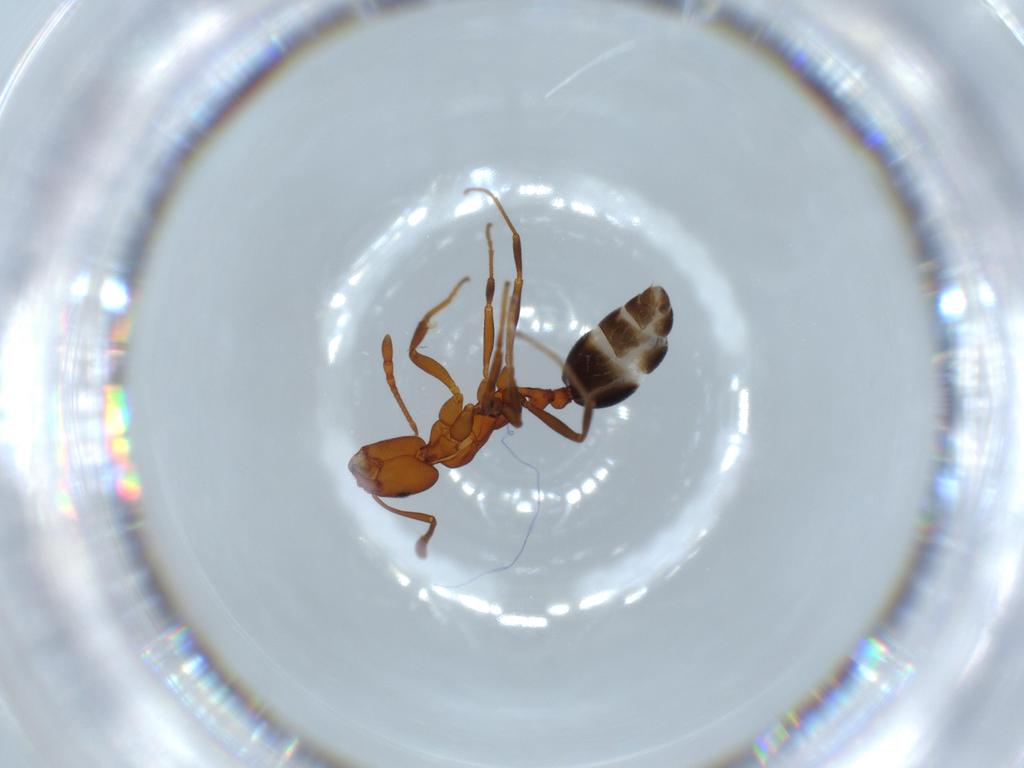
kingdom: Animalia
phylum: Arthropoda
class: Insecta
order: Hymenoptera
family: Formicidae
